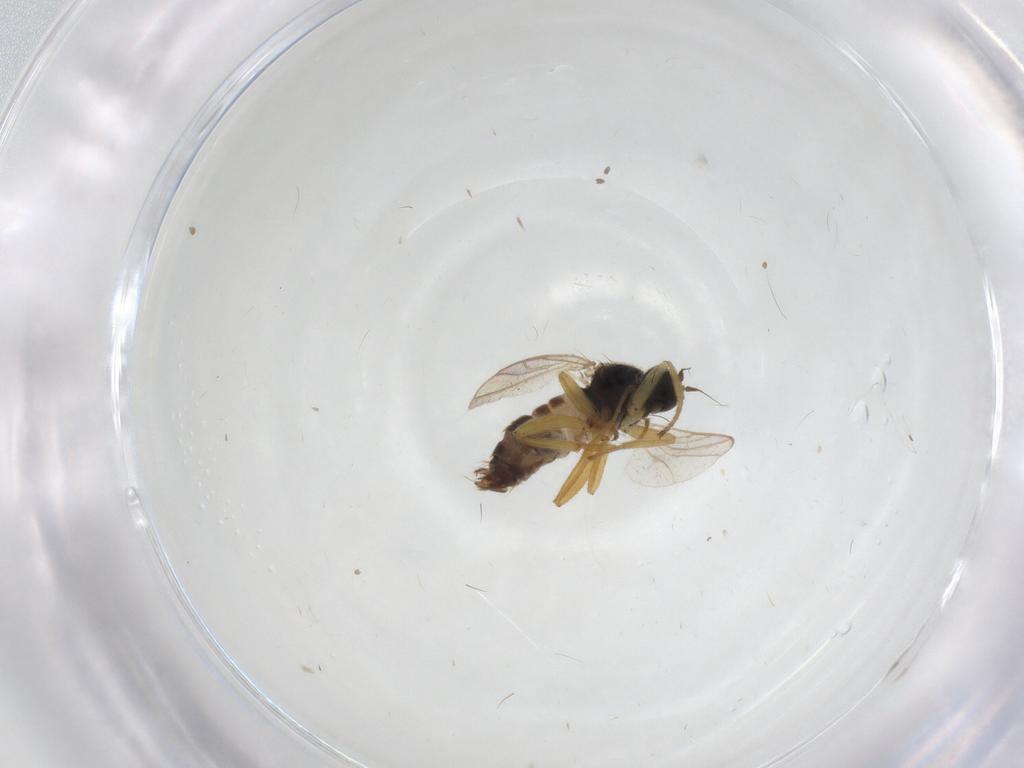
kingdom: Animalia
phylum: Arthropoda
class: Insecta
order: Diptera
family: Hybotidae
